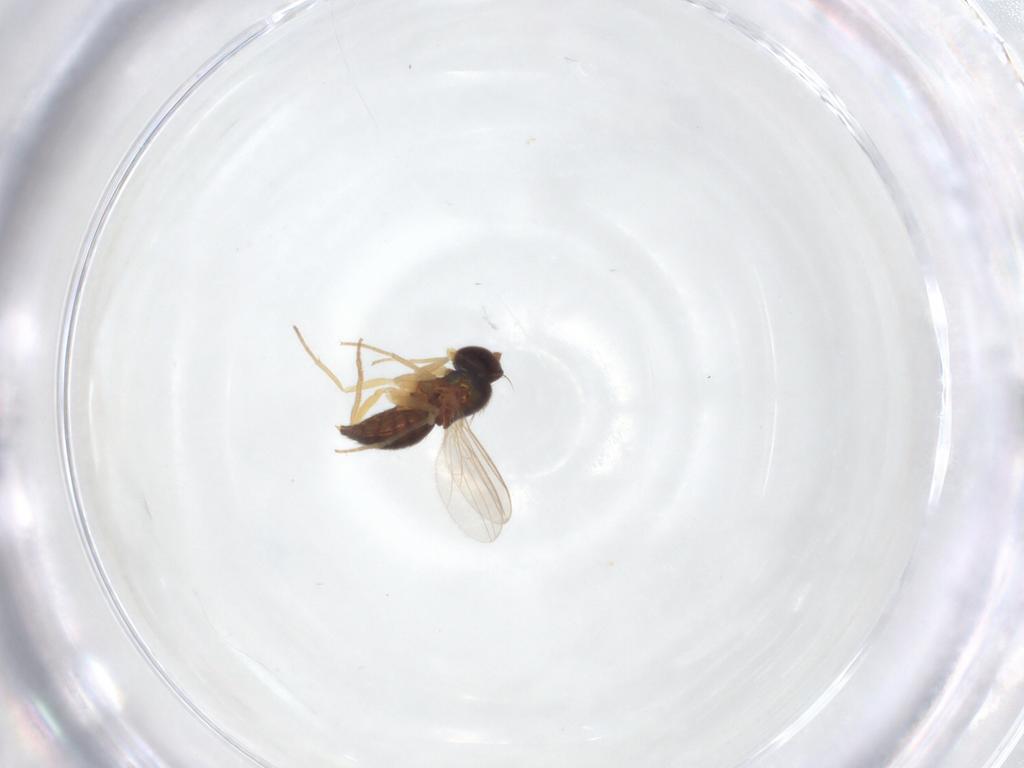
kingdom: Animalia
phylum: Arthropoda
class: Insecta
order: Diptera
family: Dolichopodidae
